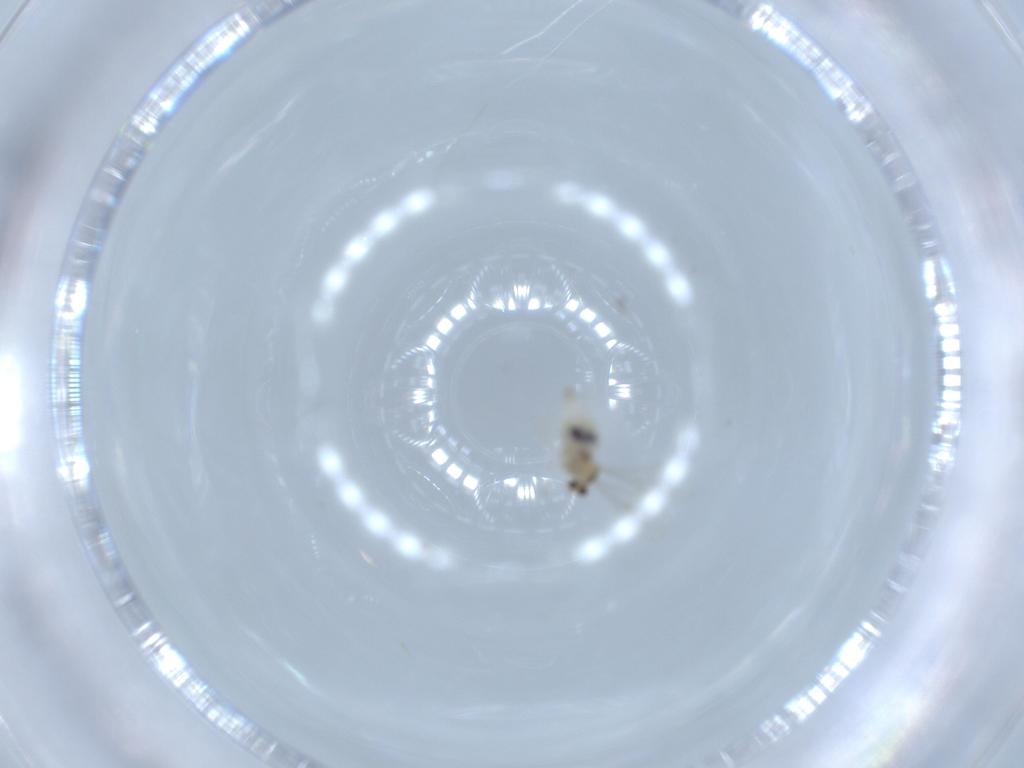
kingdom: Animalia
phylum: Arthropoda
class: Insecta
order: Diptera
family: Cecidomyiidae
